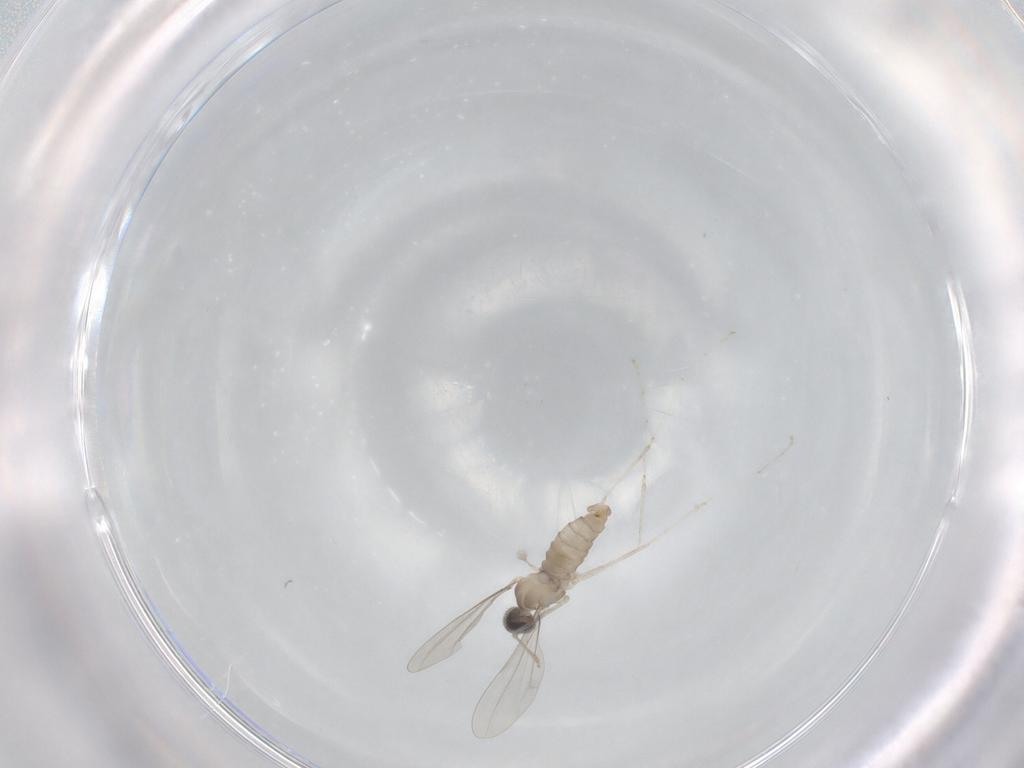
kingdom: Animalia
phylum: Arthropoda
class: Insecta
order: Diptera
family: Cecidomyiidae
